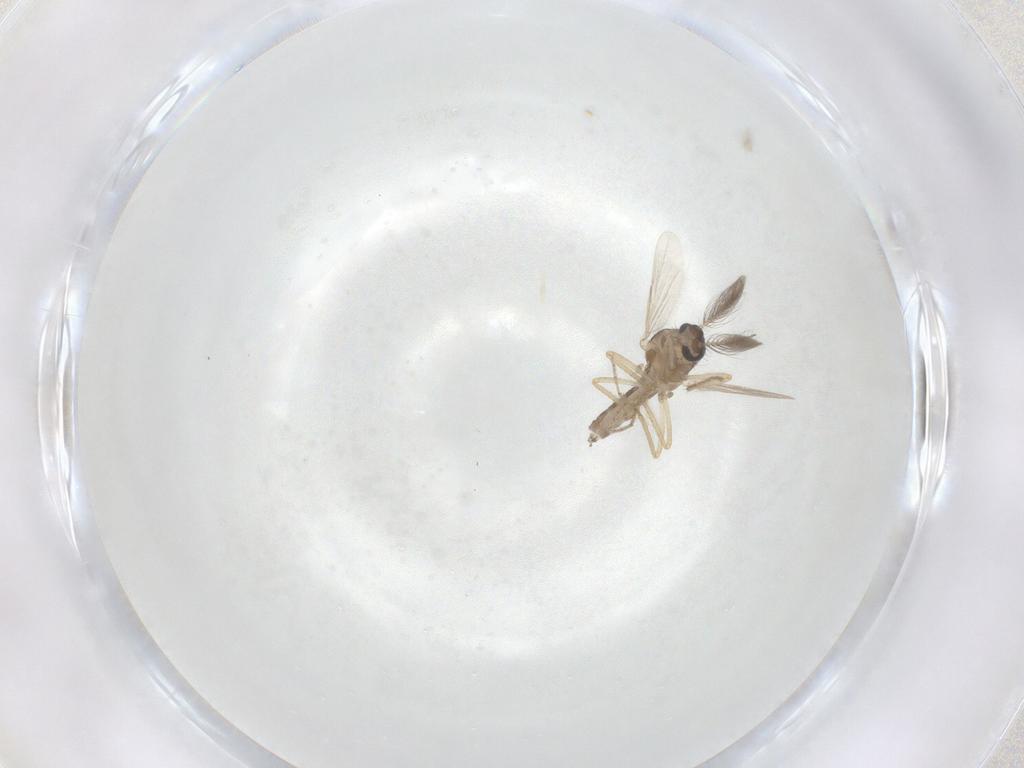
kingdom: Animalia
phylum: Arthropoda
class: Insecta
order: Diptera
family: Ceratopogonidae
